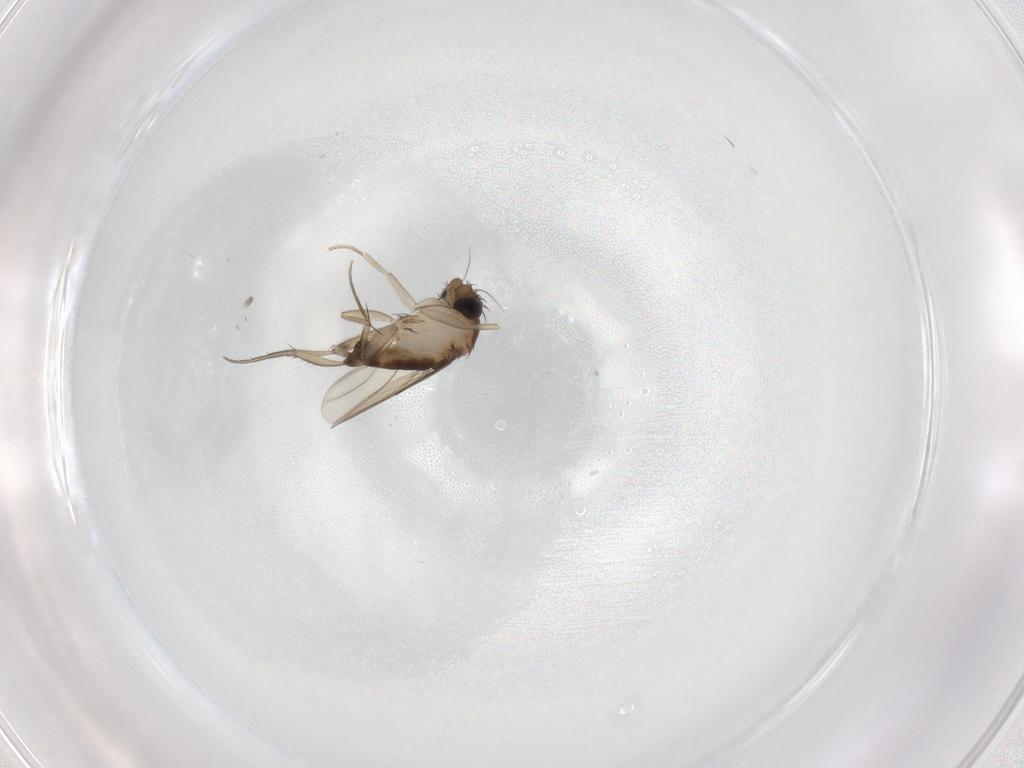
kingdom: Animalia
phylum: Arthropoda
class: Insecta
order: Diptera
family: Phoridae
